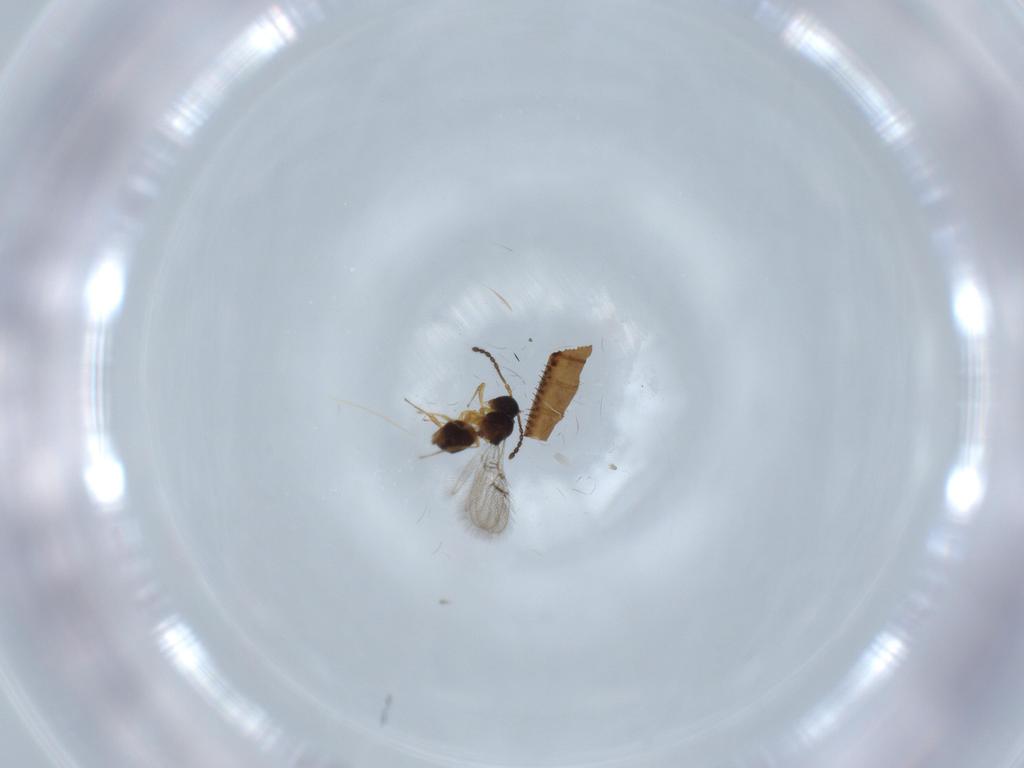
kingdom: Animalia
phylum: Arthropoda
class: Insecta
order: Hymenoptera
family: Figitidae
